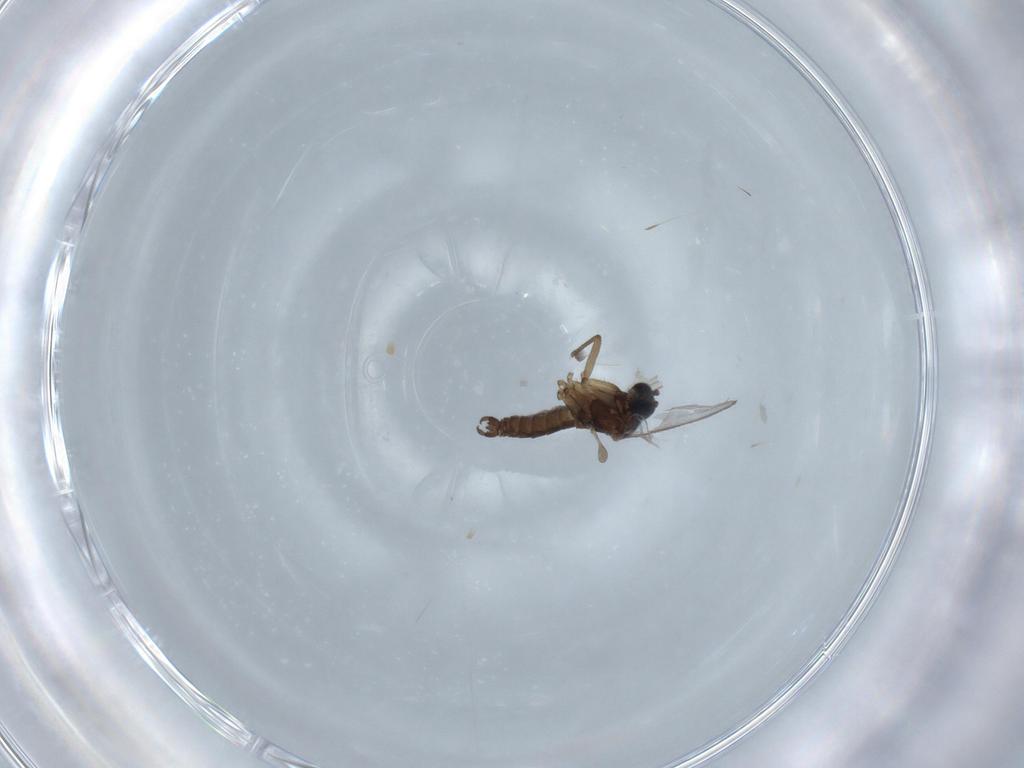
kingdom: Animalia
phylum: Arthropoda
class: Insecta
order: Diptera
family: Sciaridae
